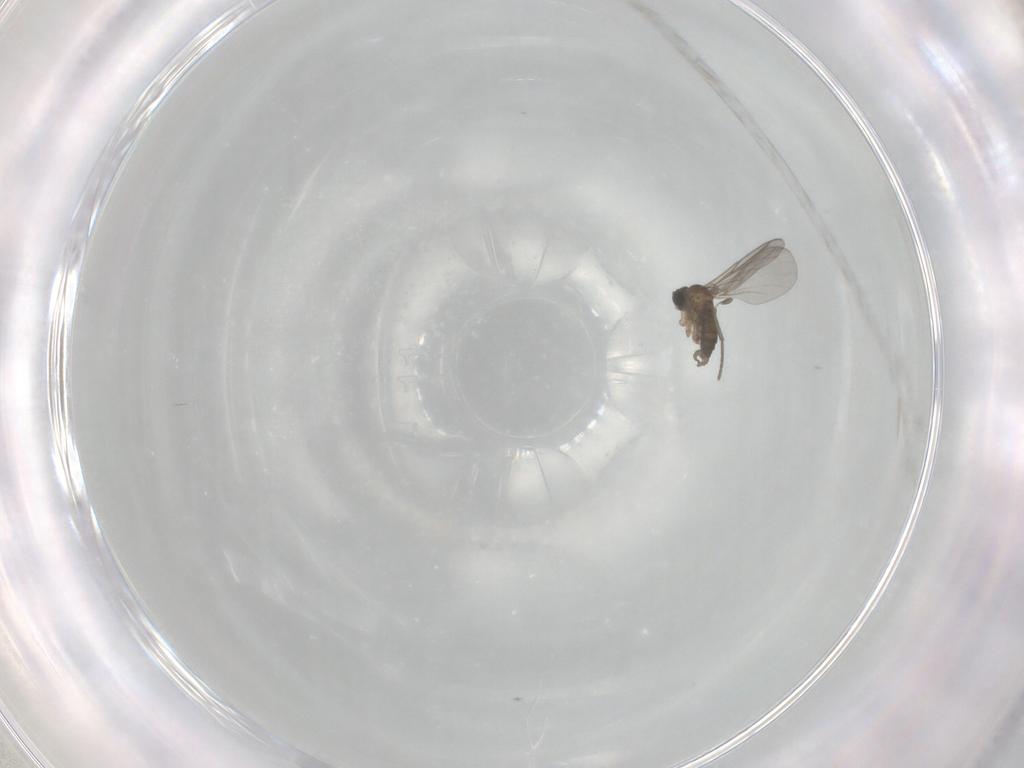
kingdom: Animalia
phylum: Arthropoda
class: Insecta
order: Diptera
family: Sciaridae
